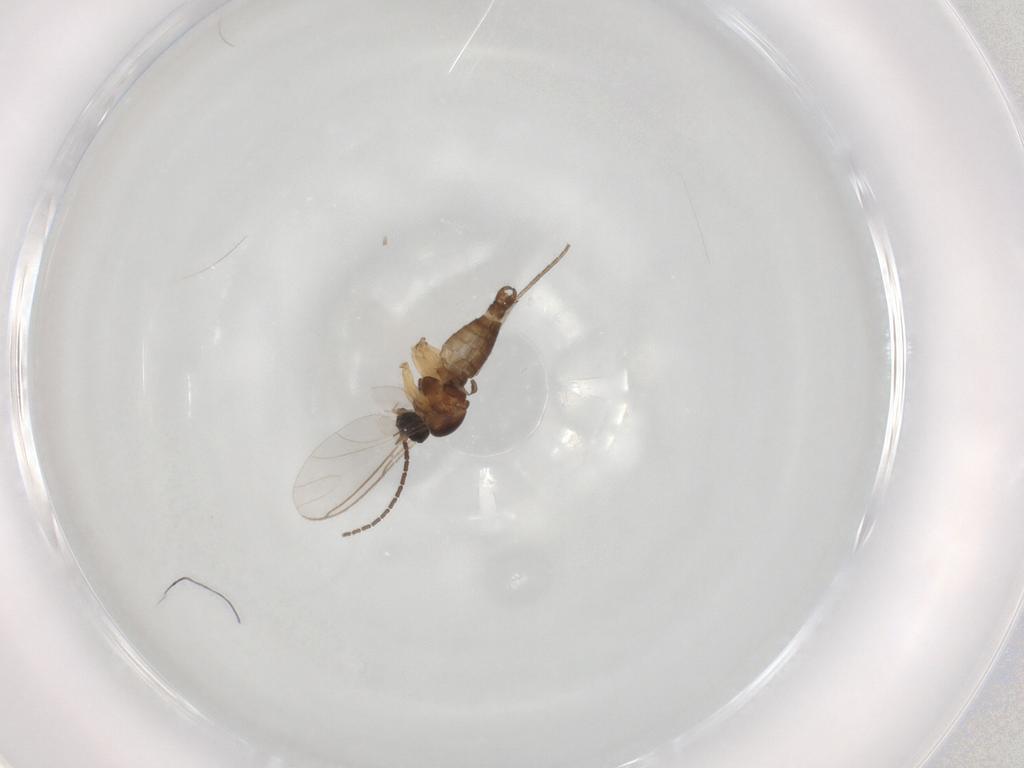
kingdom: Animalia
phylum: Arthropoda
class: Insecta
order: Diptera
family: Sciaridae
